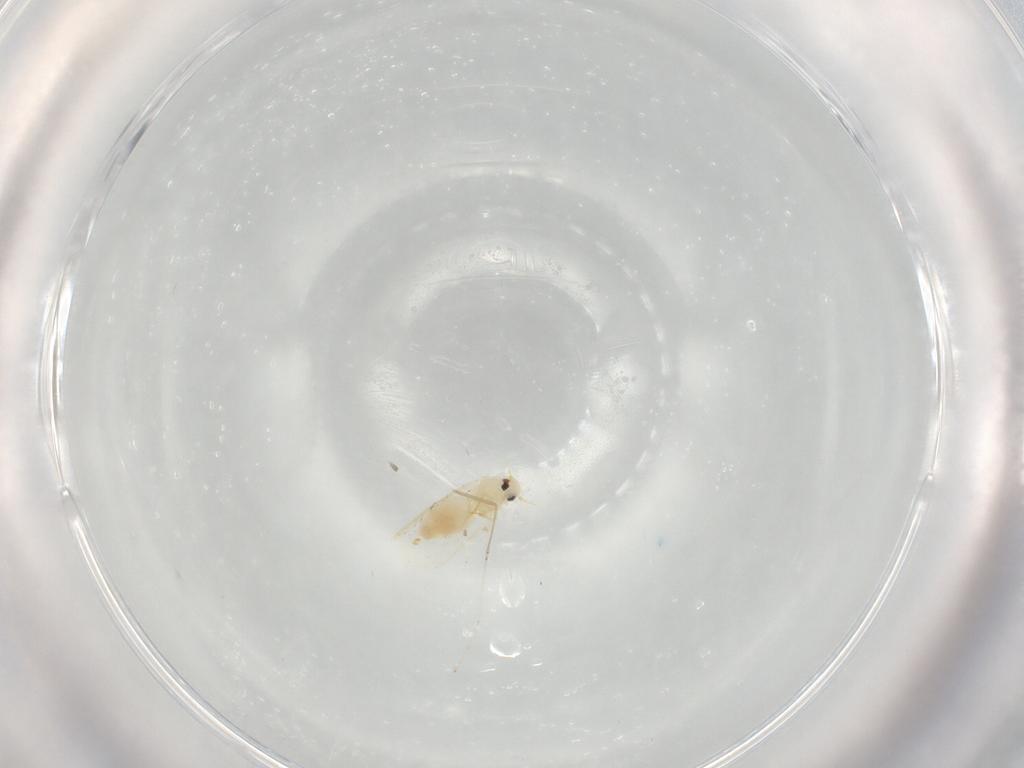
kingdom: Animalia
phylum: Arthropoda
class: Insecta
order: Hemiptera
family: Aleyrodidae
